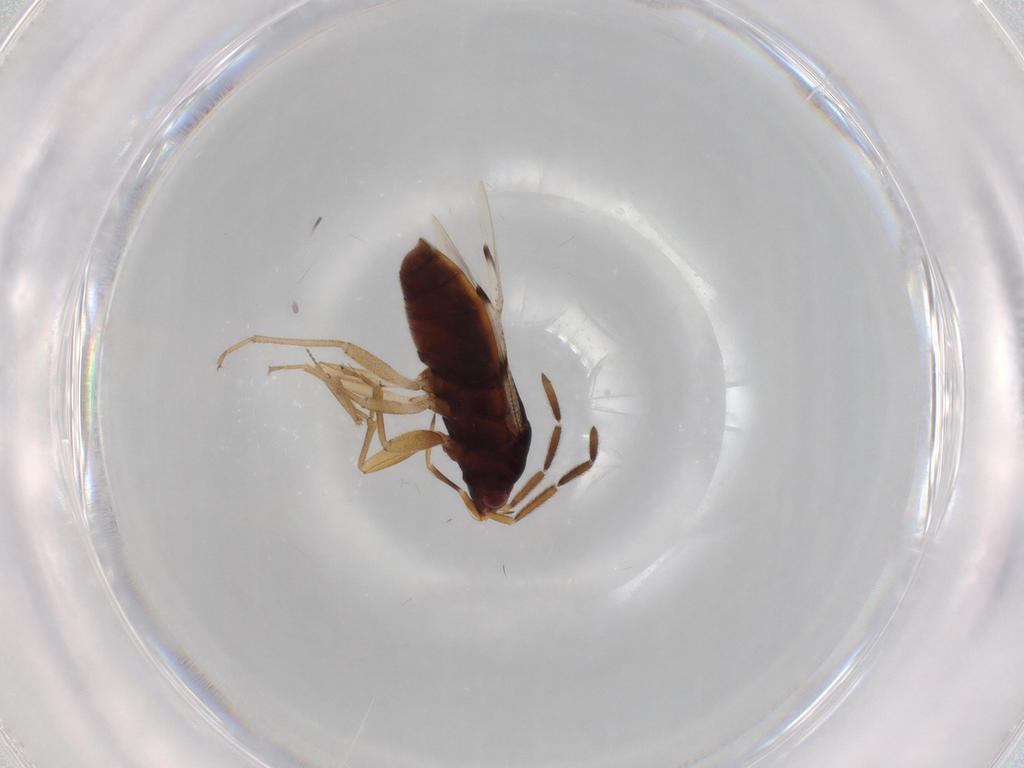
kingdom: Animalia
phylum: Arthropoda
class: Insecta
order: Hemiptera
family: Rhyparochromidae
